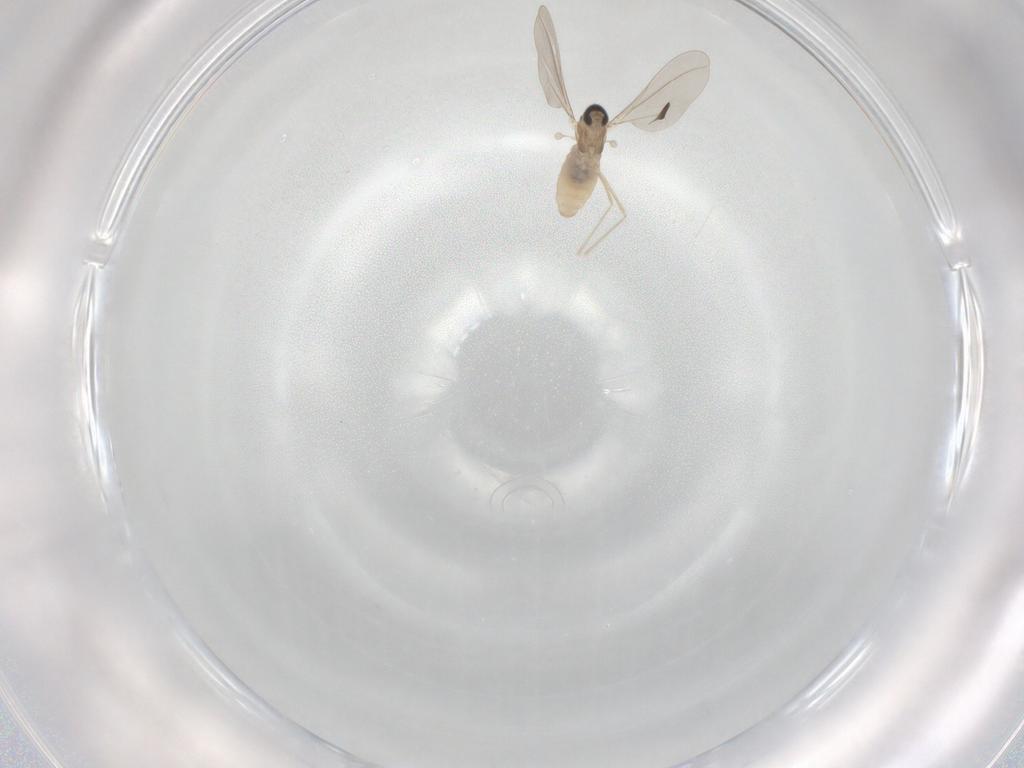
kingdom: Animalia
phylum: Arthropoda
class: Insecta
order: Diptera
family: Cecidomyiidae
